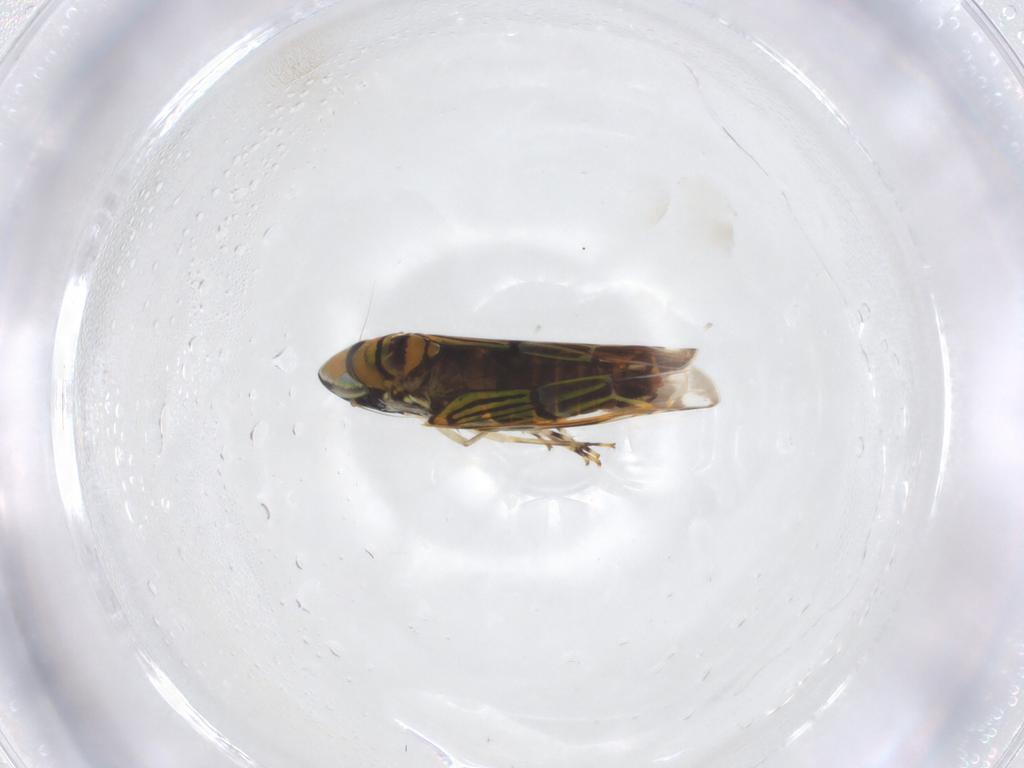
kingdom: Animalia
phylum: Arthropoda
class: Insecta
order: Hemiptera
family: Cicadellidae
